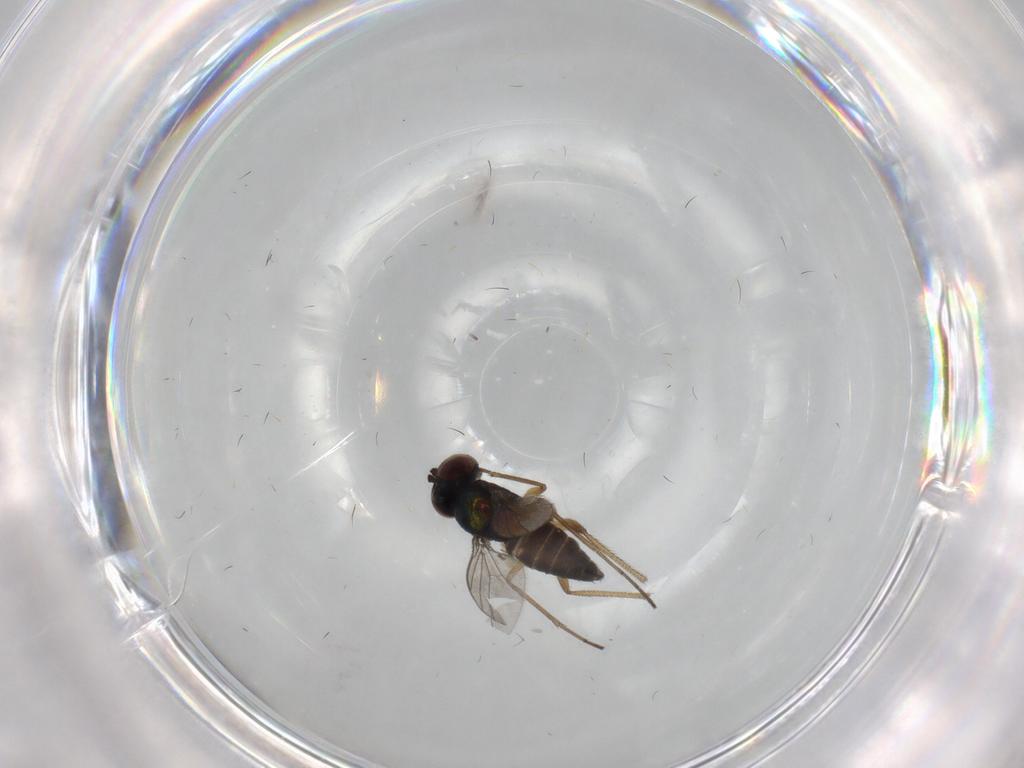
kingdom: Animalia
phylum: Arthropoda
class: Insecta
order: Diptera
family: Dolichopodidae
